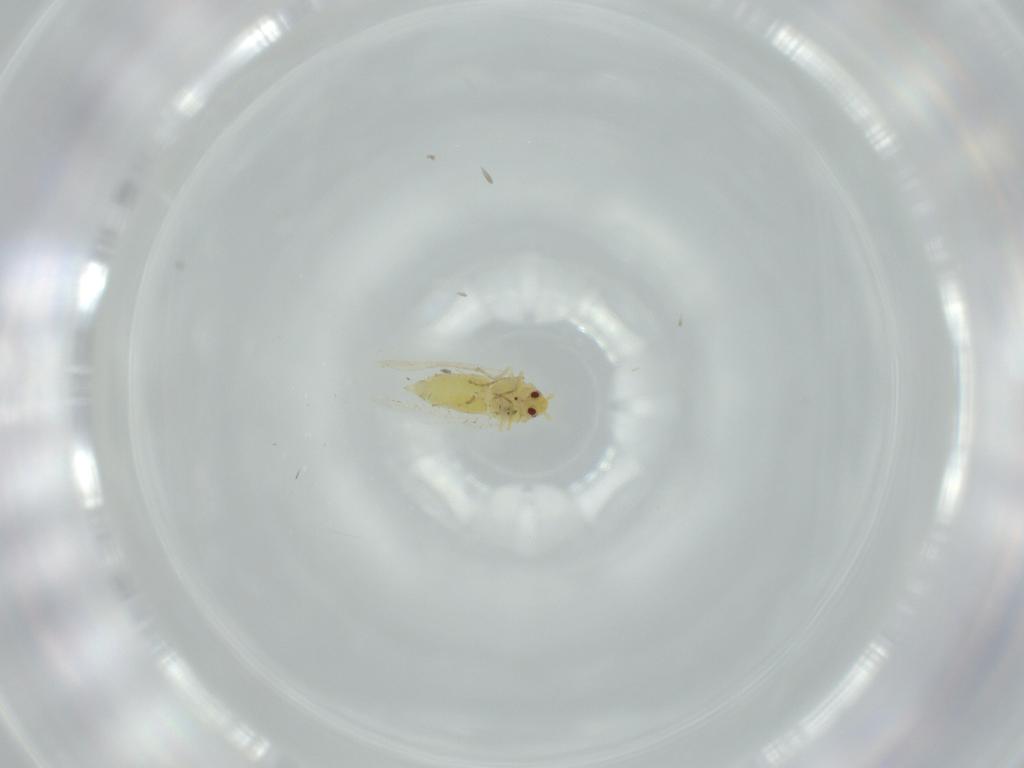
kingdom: Animalia
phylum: Arthropoda
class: Insecta
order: Hemiptera
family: Aleyrodidae
